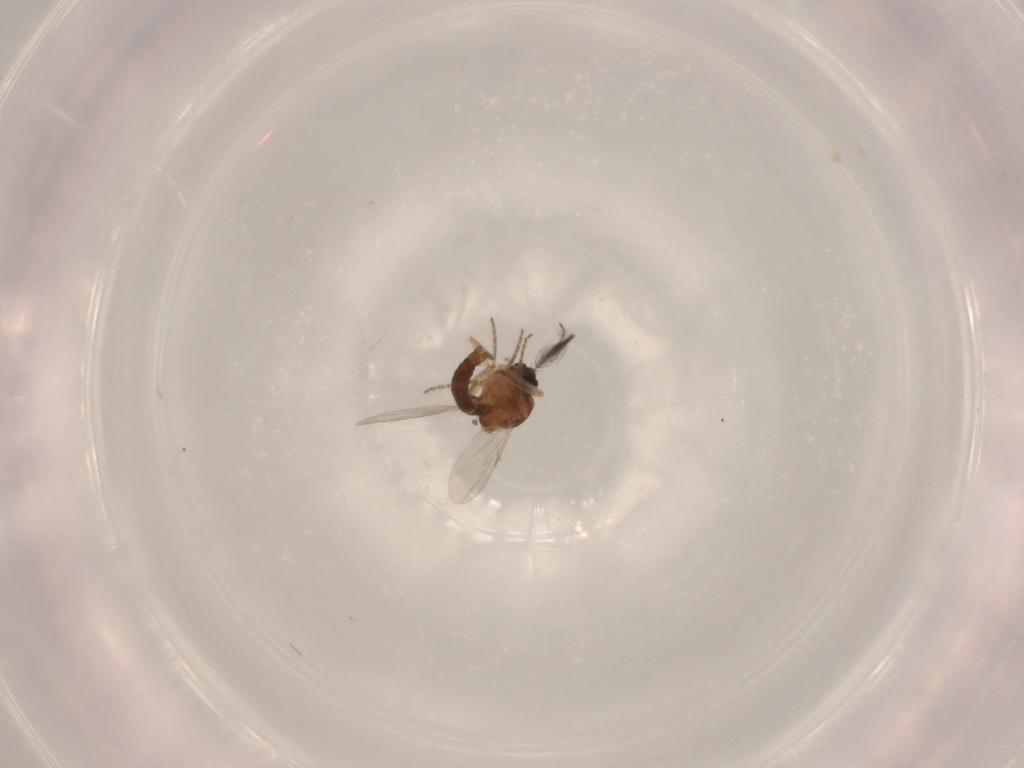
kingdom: Animalia
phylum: Arthropoda
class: Insecta
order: Diptera
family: Ceratopogonidae
